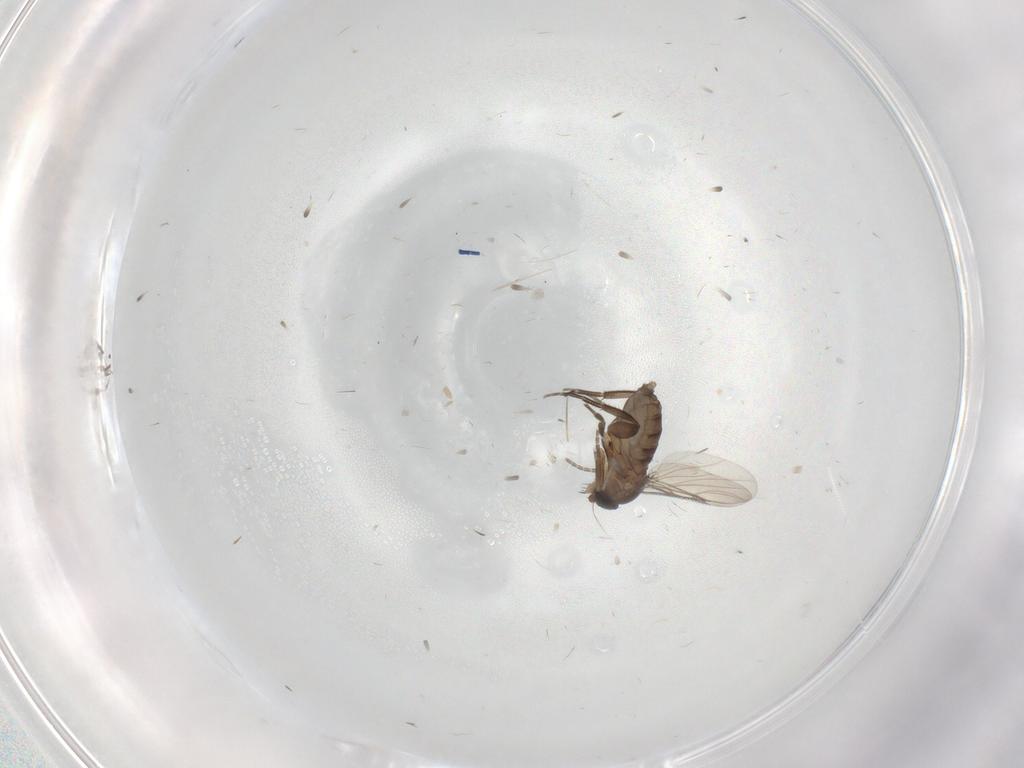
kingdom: Animalia
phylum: Arthropoda
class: Insecta
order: Diptera
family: Phoridae
